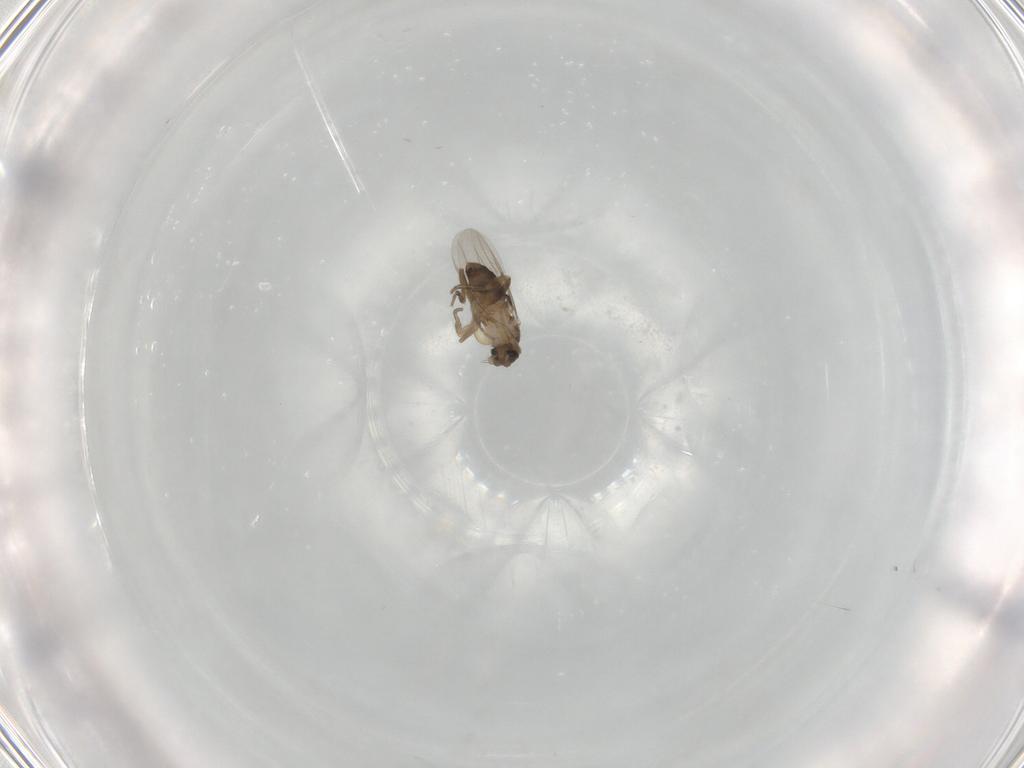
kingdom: Animalia
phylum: Arthropoda
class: Insecta
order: Diptera
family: Phoridae
